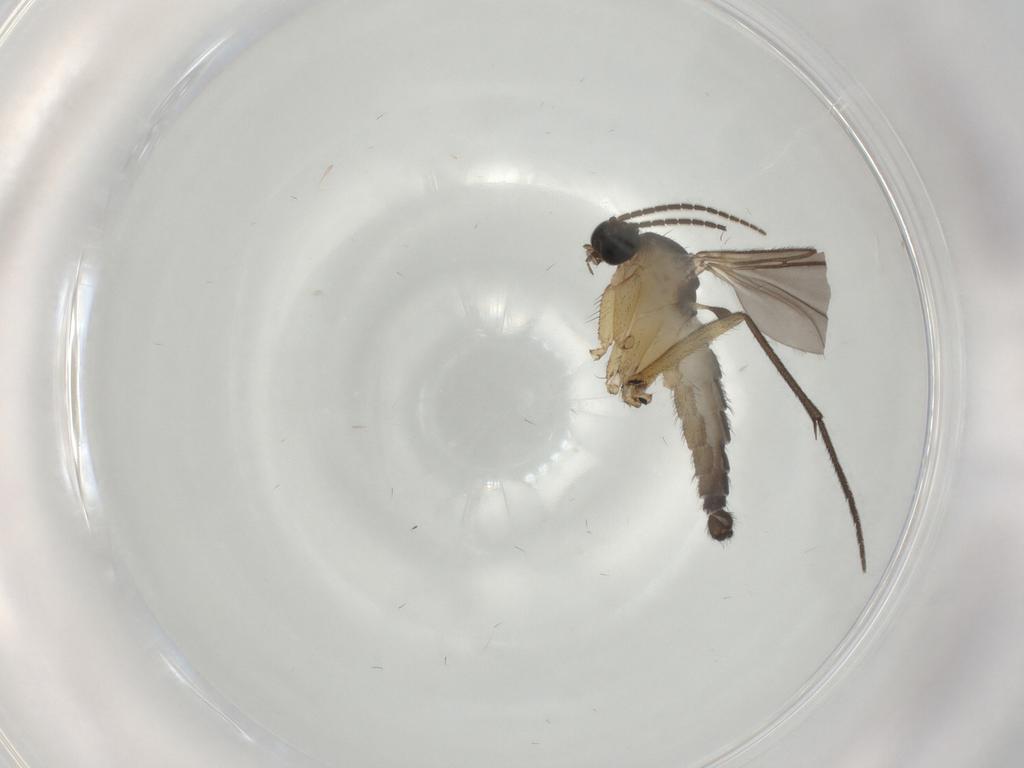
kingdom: Animalia
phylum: Arthropoda
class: Insecta
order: Diptera
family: Sciaridae
